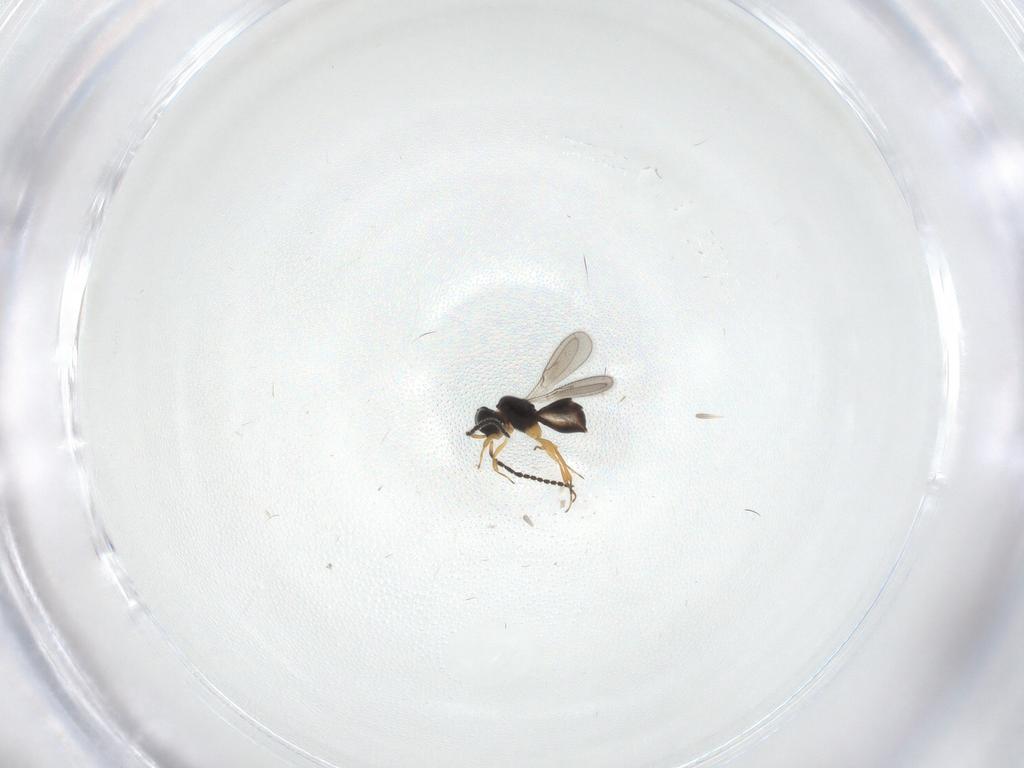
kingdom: Animalia
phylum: Arthropoda
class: Insecta
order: Hymenoptera
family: Scelionidae
